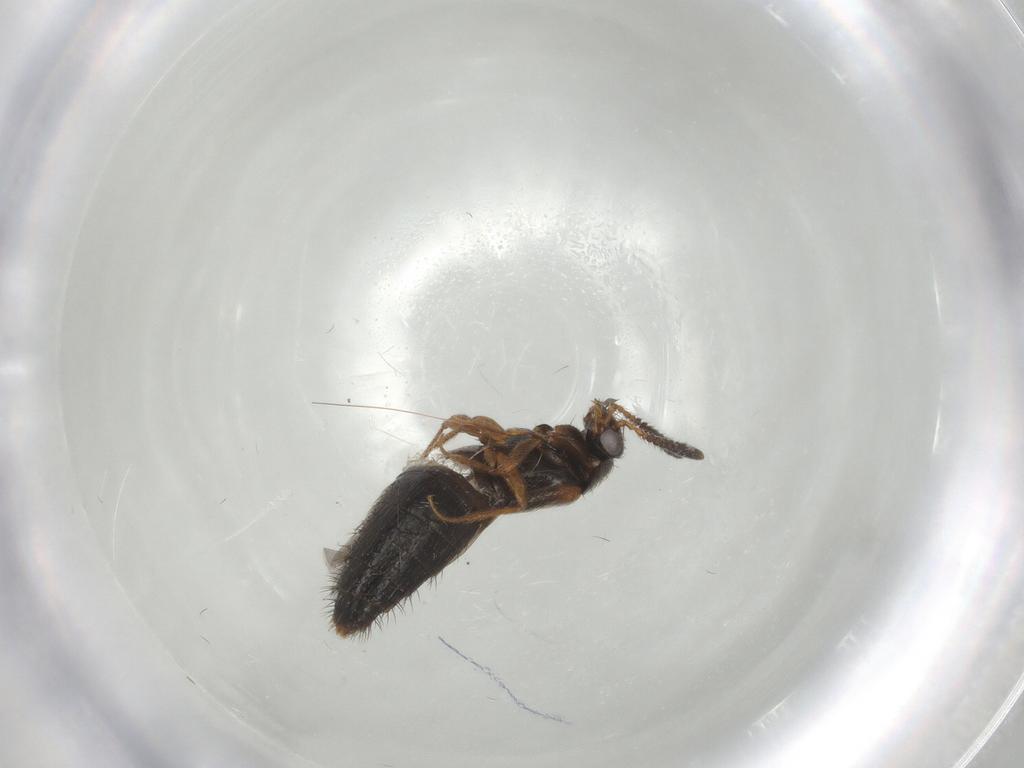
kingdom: Animalia
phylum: Arthropoda
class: Insecta
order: Coleoptera
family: Staphylinidae
